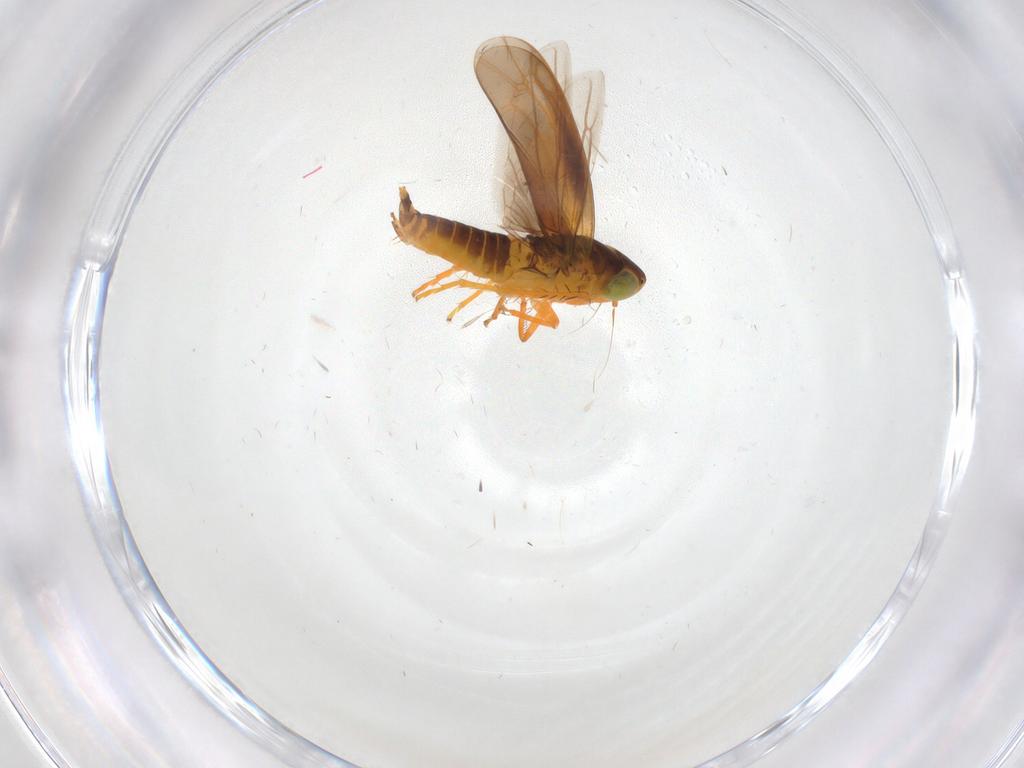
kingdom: Animalia
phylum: Arthropoda
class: Insecta
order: Hemiptera
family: Cicadellidae
